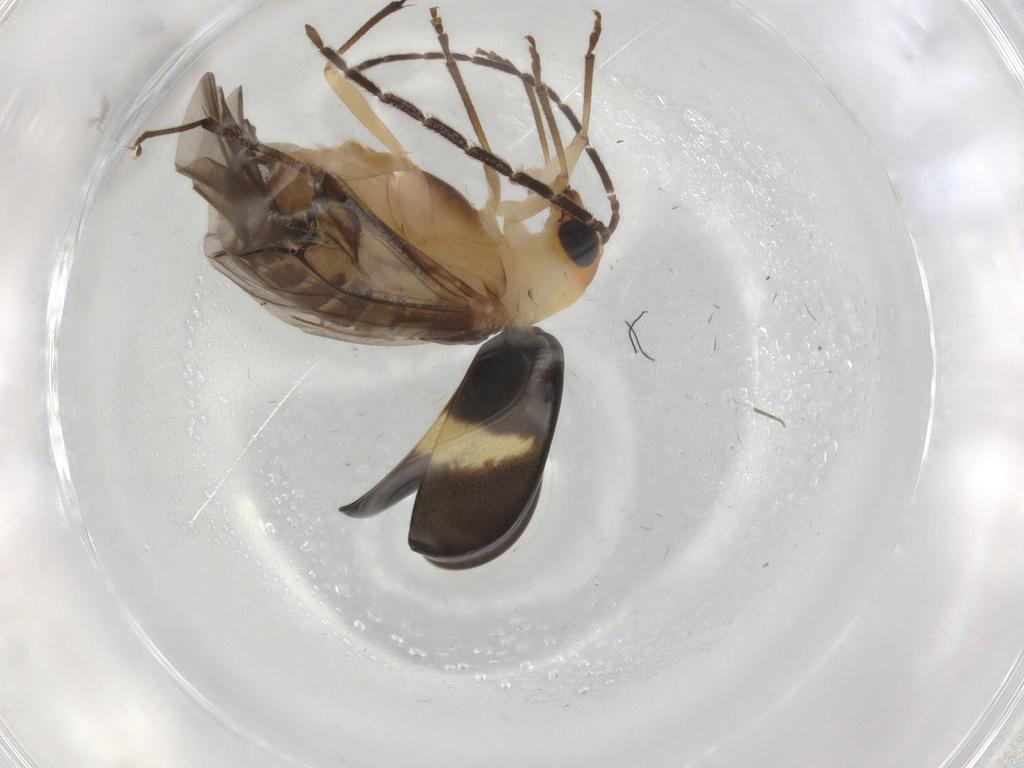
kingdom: Animalia
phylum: Arthropoda
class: Insecta
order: Coleoptera
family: Chrysomelidae
